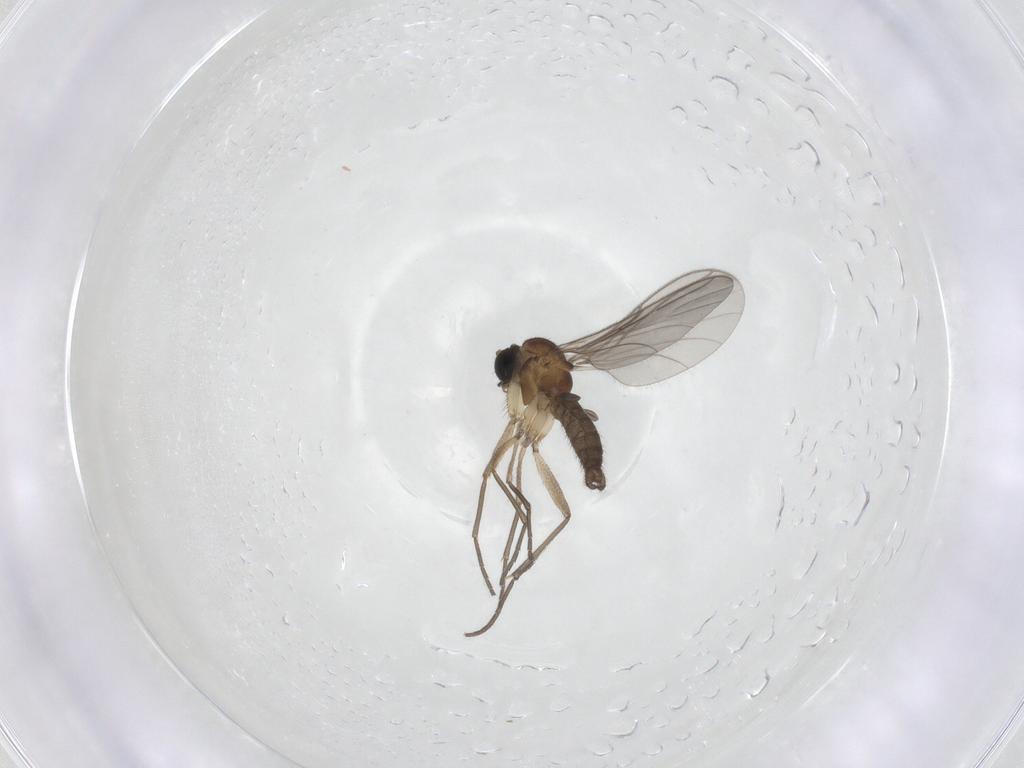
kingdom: Animalia
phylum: Arthropoda
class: Insecta
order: Diptera
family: Sciaridae
